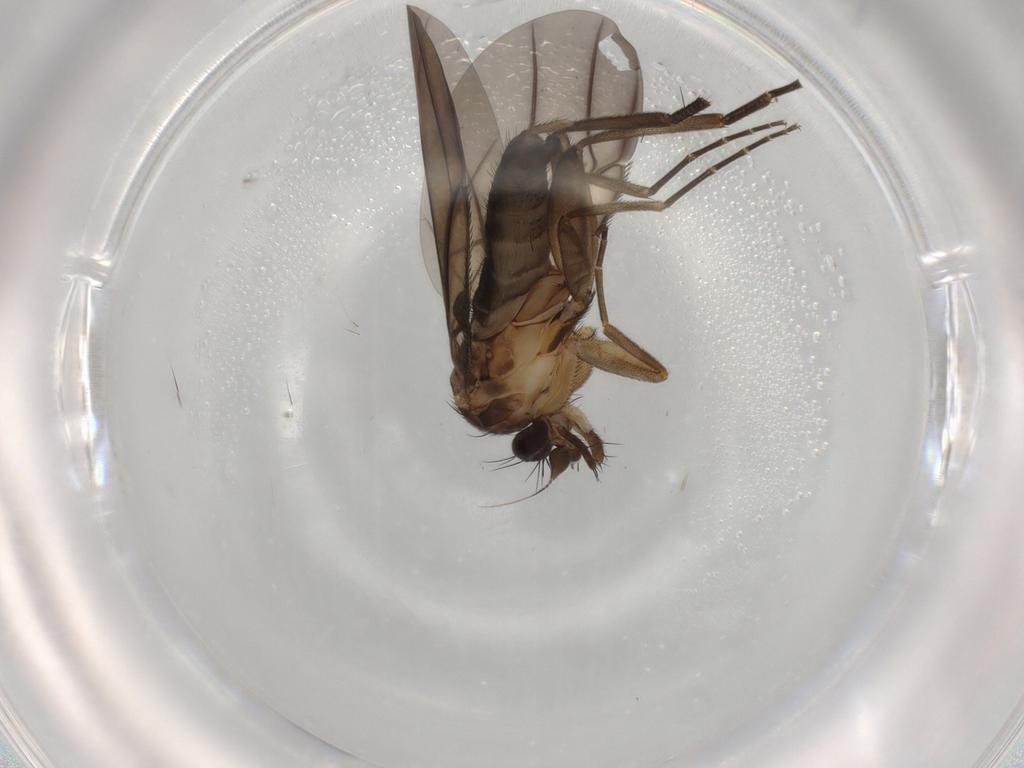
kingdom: Animalia
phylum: Arthropoda
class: Insecta
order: Diptera
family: Phoridae
